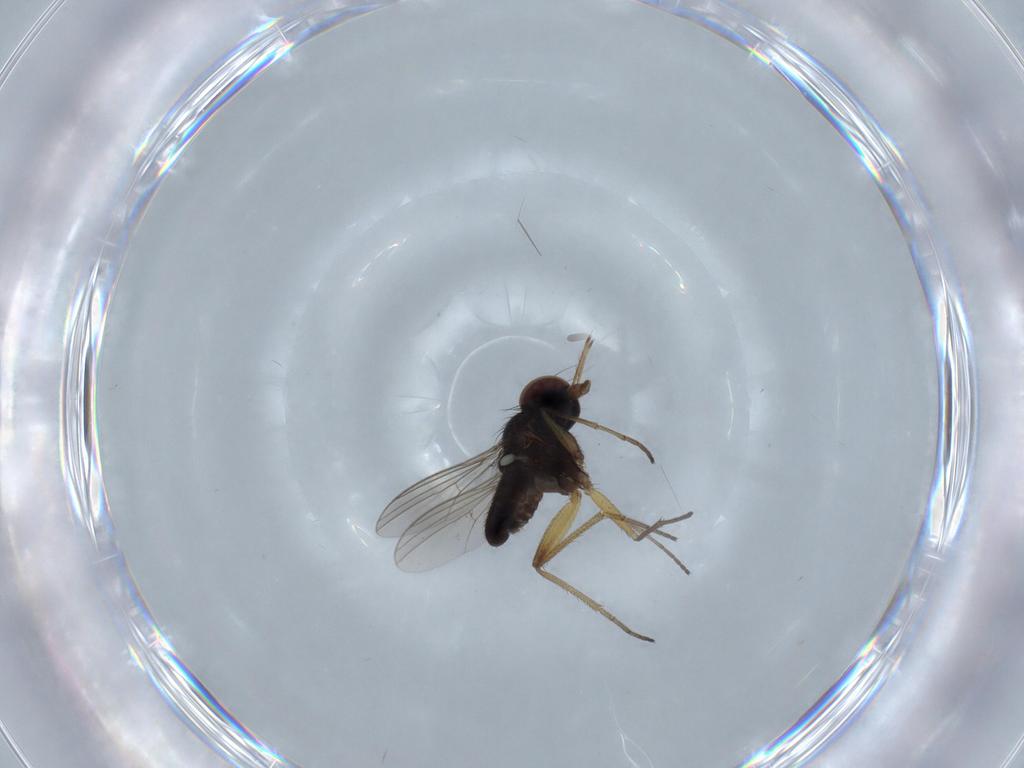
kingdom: Animalia
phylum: Arthropoda
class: Insecta
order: Diptera
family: Dolichopodidae
